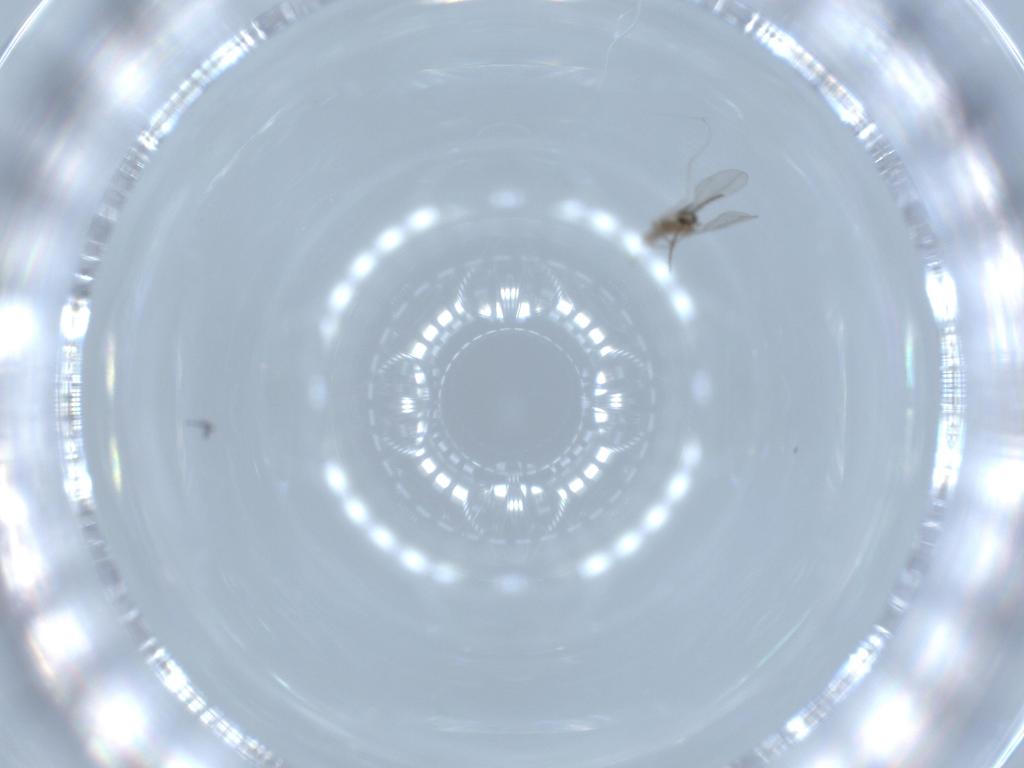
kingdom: Animalia
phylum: Arthropoda
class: Insecta
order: Diptera
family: Cecidomyiidae
